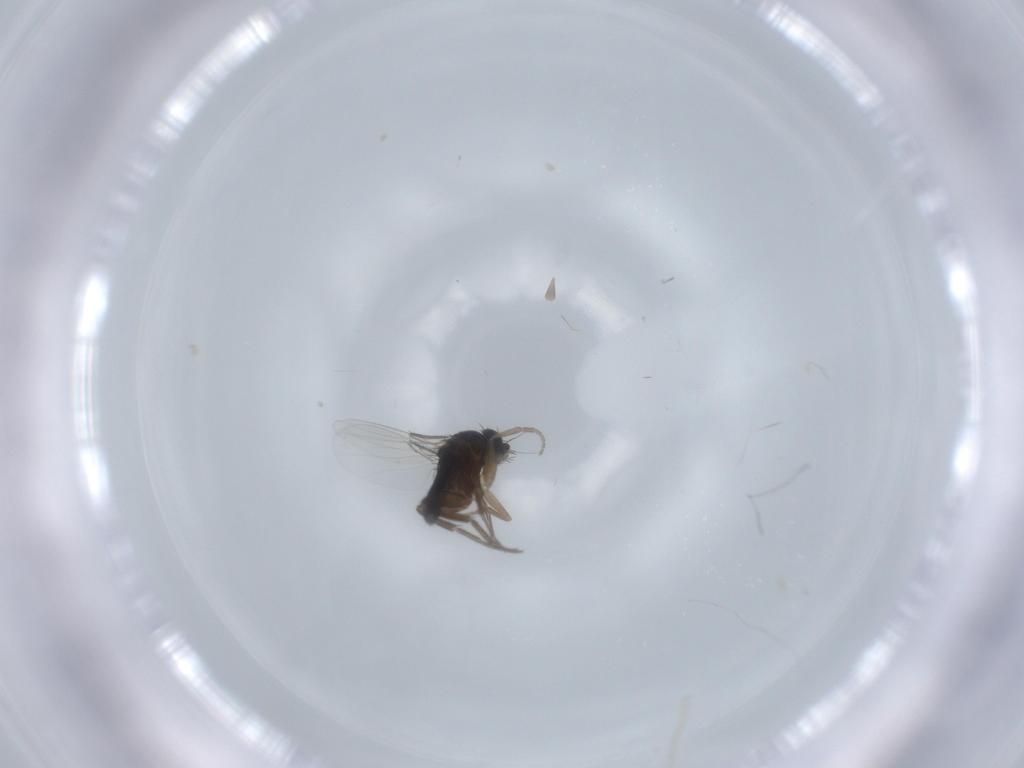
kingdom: Animalia
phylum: Arthropoda
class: Insecta
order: Diptera
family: Phoridae
